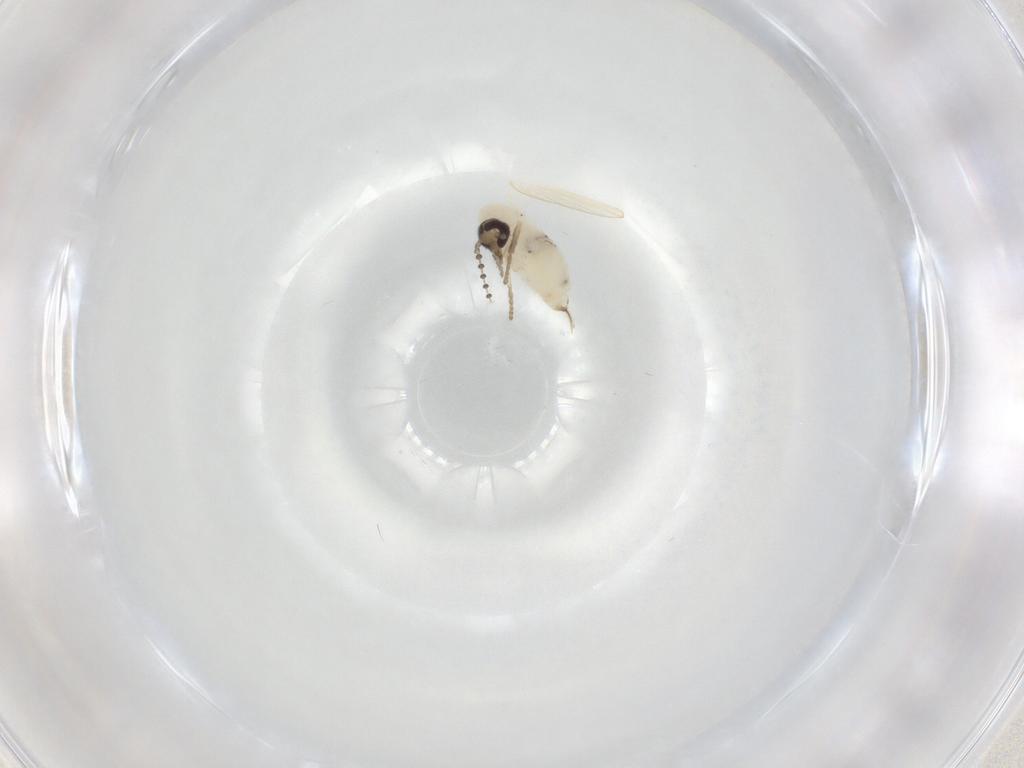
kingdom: Animalia
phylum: Arthropoda
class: Insecta
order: Diptera
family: Psychodidae
